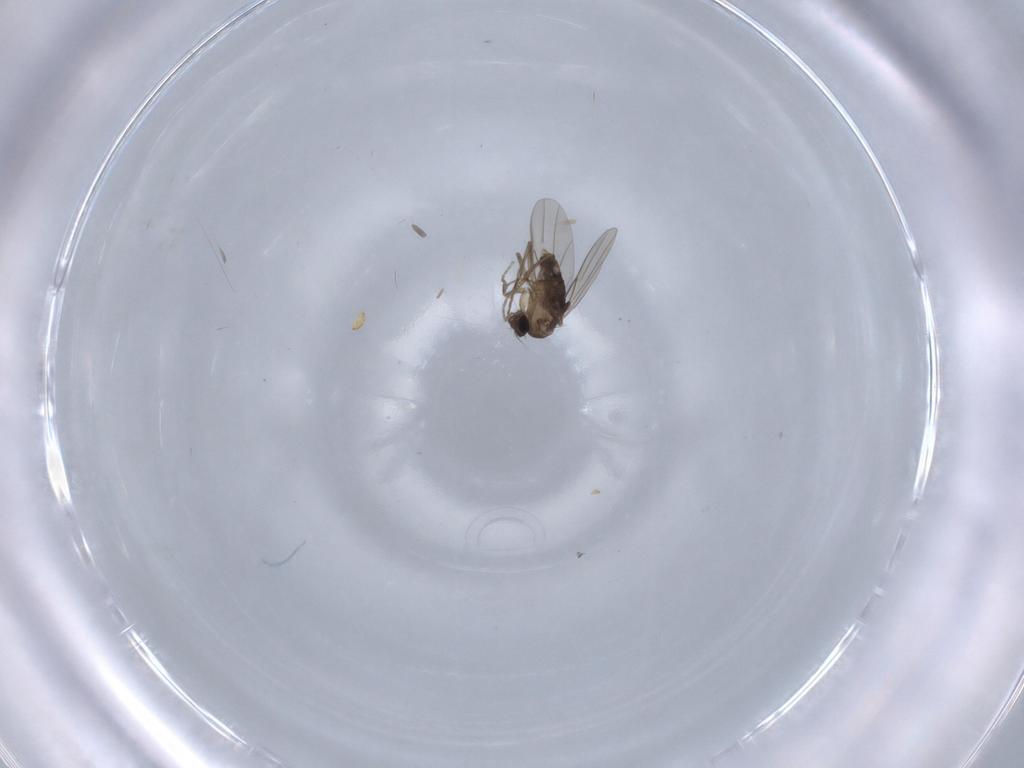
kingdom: Animalia
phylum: Arthropoda
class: Insecta
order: Diptera
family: Phoridae
